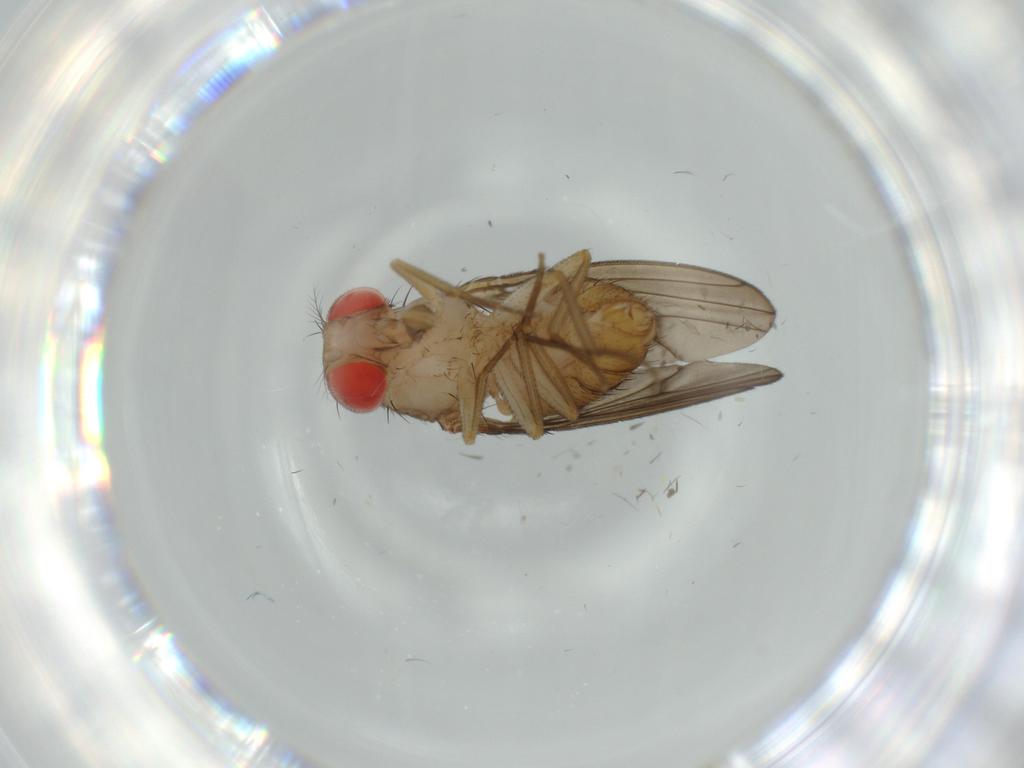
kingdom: Animalia
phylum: Arthropoda
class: Insecta
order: Diptera
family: Drosophilidae
